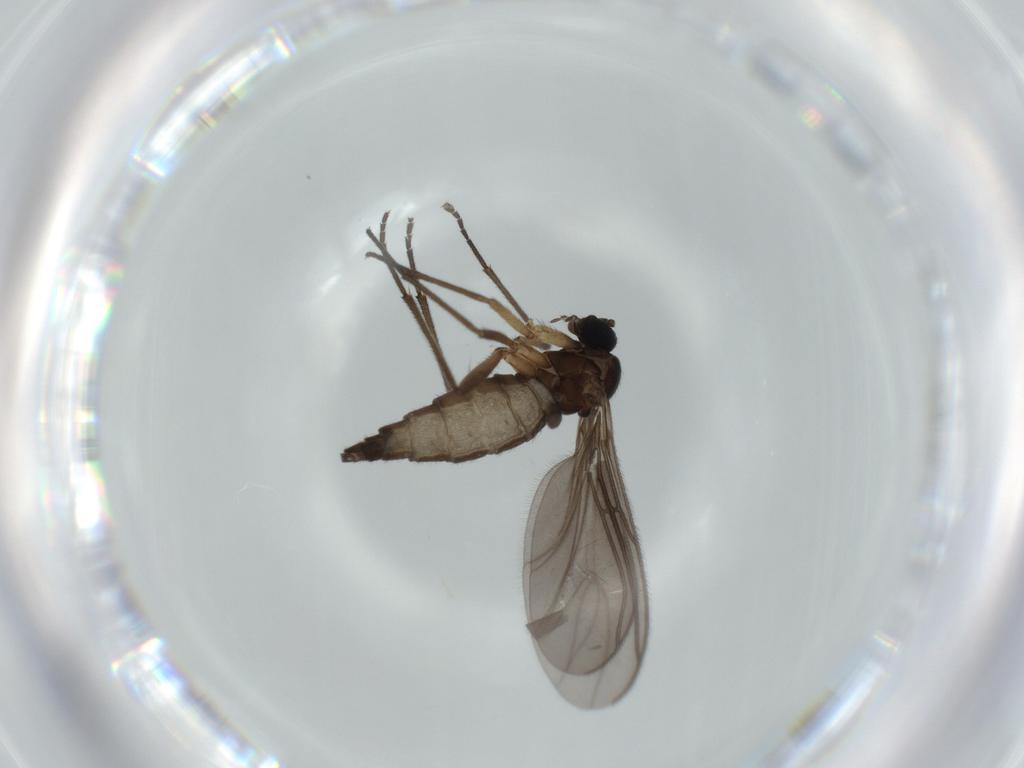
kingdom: Animalia
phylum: Arthropoda
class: Insecta
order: Diptera
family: Sciaridae
